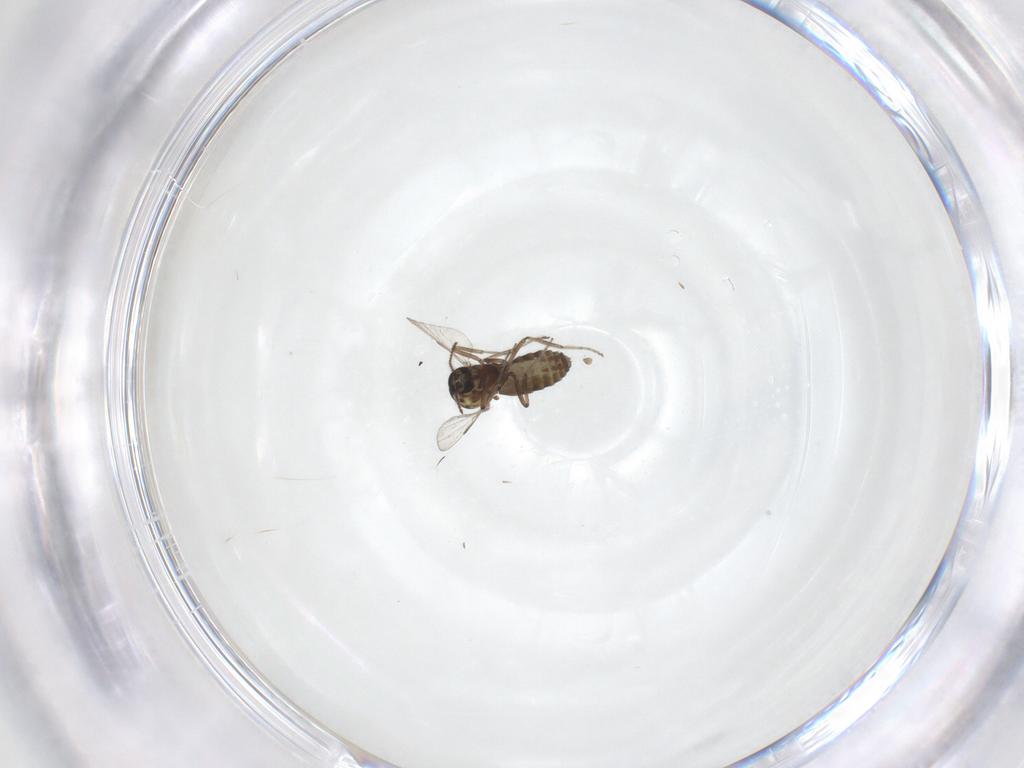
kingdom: Animalia
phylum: Arthropoda
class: Insecta
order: Diptera
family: Ceratopogonidae
